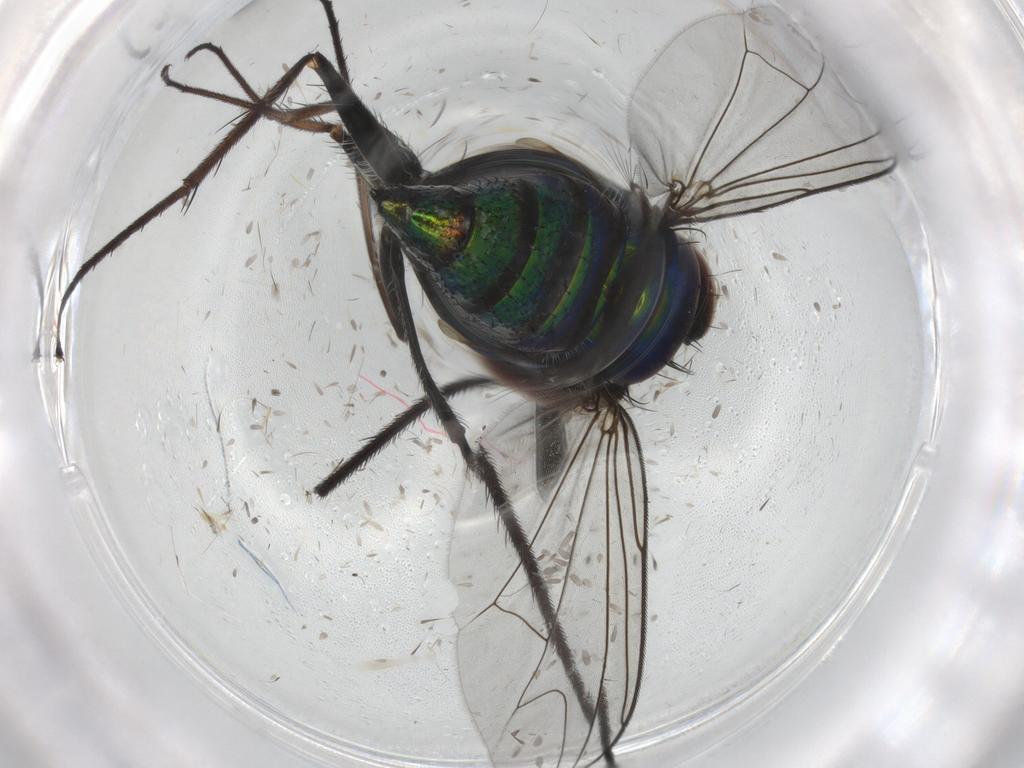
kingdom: Animalia
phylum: Arthropoda
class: Insecta
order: Diptera
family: Dolichopodidae
